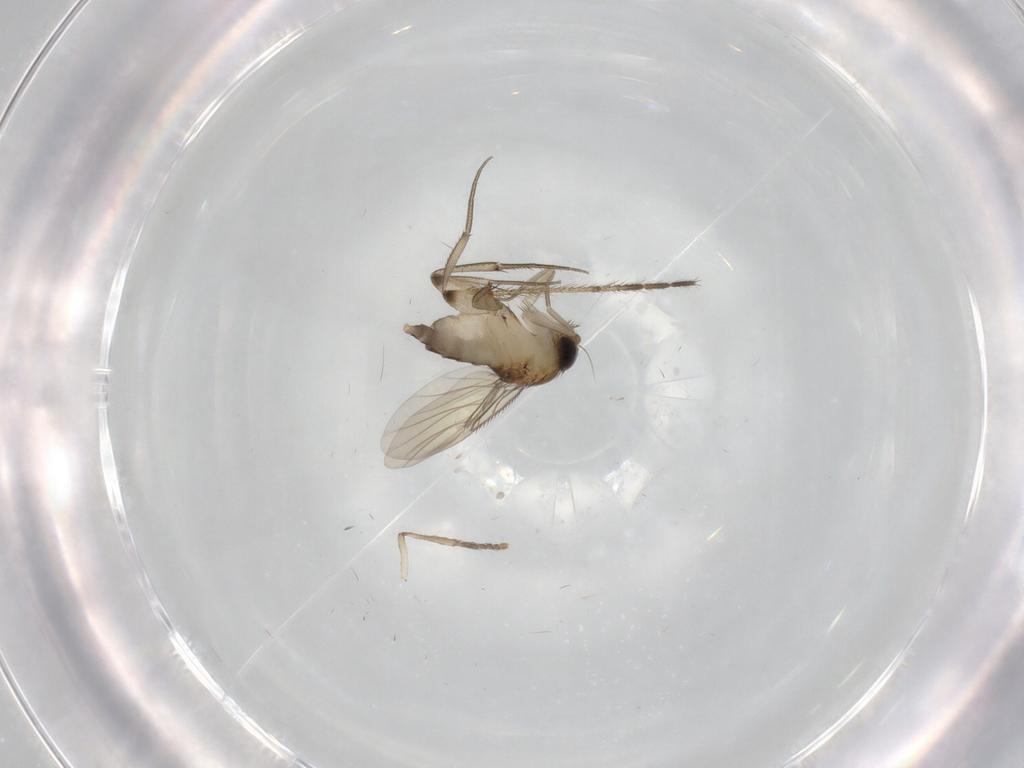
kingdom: Animalia
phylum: Arthropoda
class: Insecta
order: Diptera
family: Phoridae
